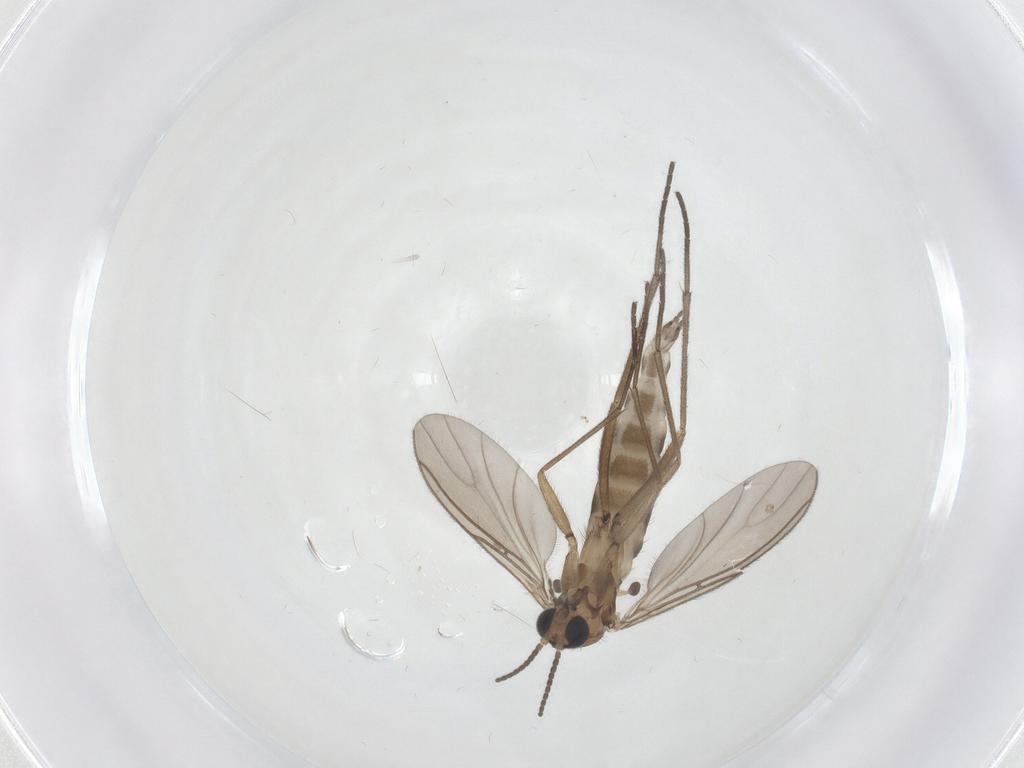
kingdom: Animalia
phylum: Arthropoda
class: Insecta
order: Diptera
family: Sciaridae
